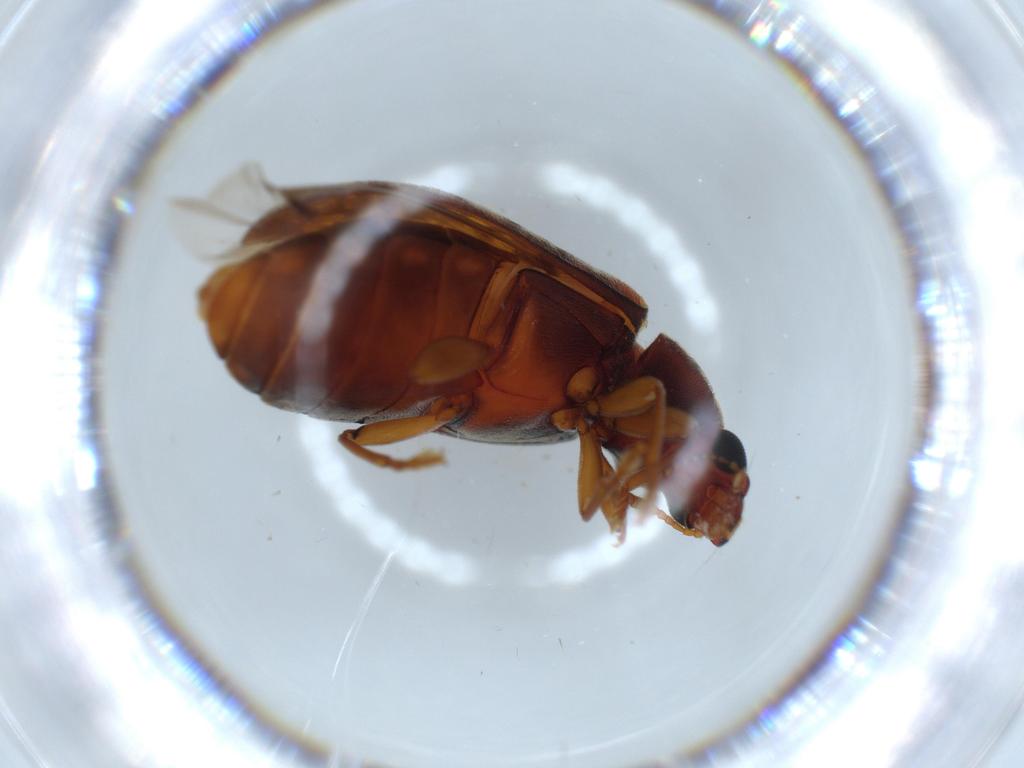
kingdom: Animalia
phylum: Arthropoda
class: Insecta
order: Coleoptera
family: Mycteridae
